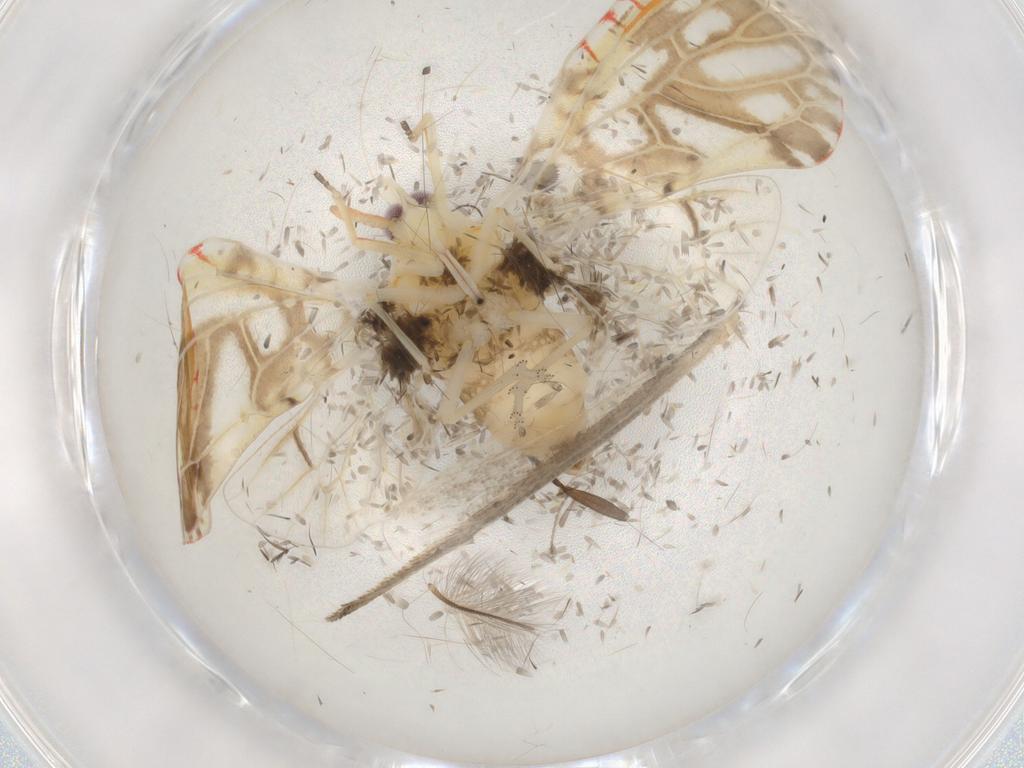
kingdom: Animalia
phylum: Arthropoda
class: Insecta
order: Hemiptera
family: Derbidae
